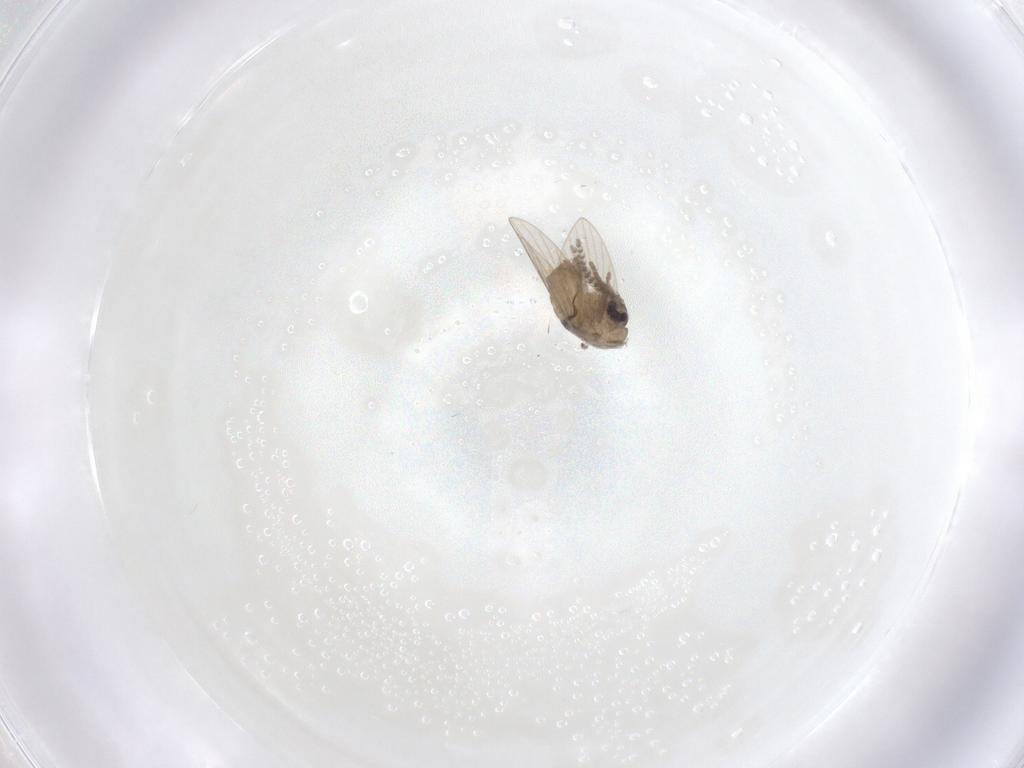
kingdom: Animalia
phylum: Arthropoda
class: Insecta
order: Diptera
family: Chironomidae
